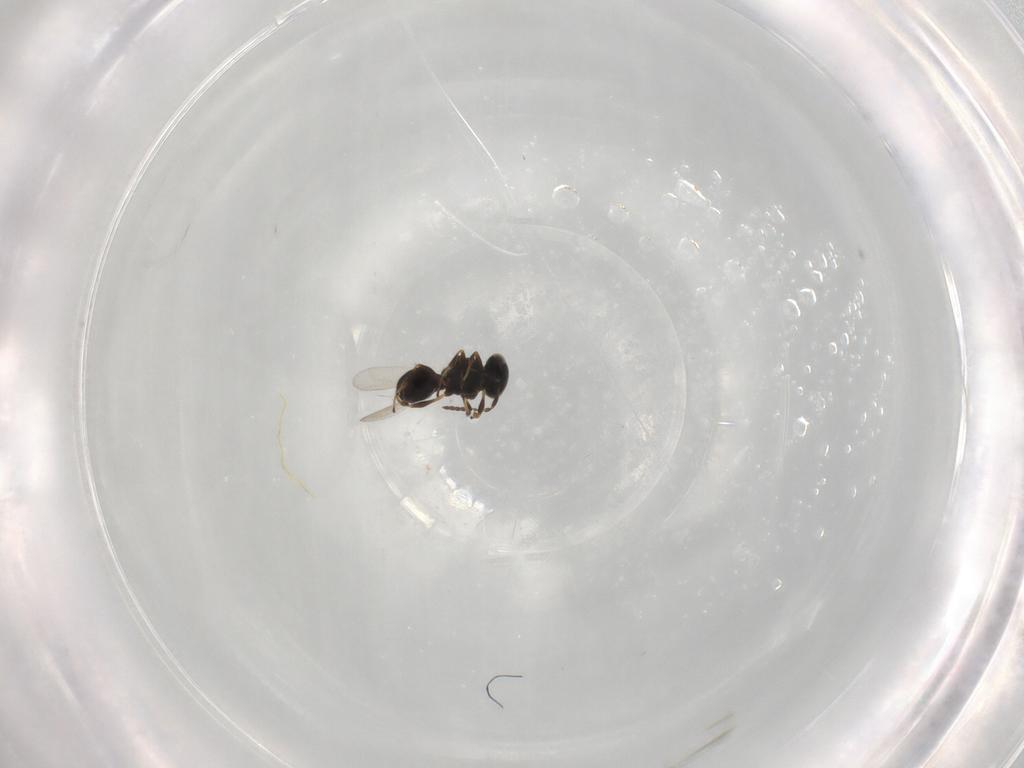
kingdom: Animalia
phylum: Arthropoda
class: Insecta
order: Hymenoptera
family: Platygastridae
